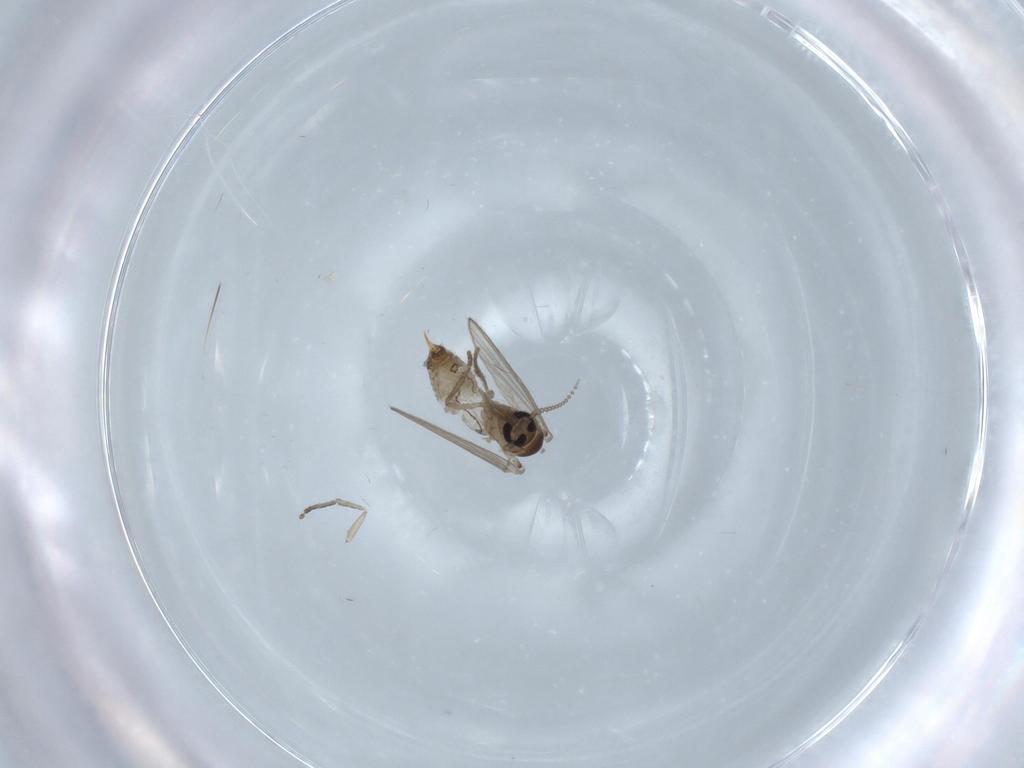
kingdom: Animalia
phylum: Arthropoda
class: Insecta
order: Diptera
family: Psychodidae
